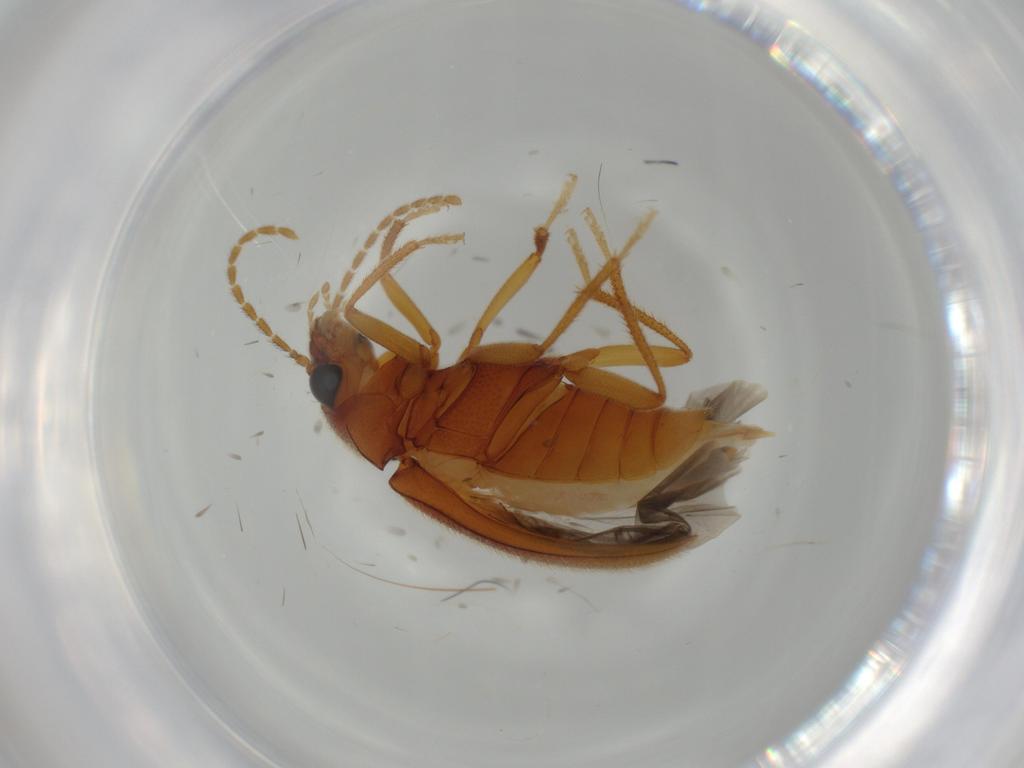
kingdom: Animalia
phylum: Arthropoda
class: Insecta
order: Coleoptera
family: Ptilodactylidae
